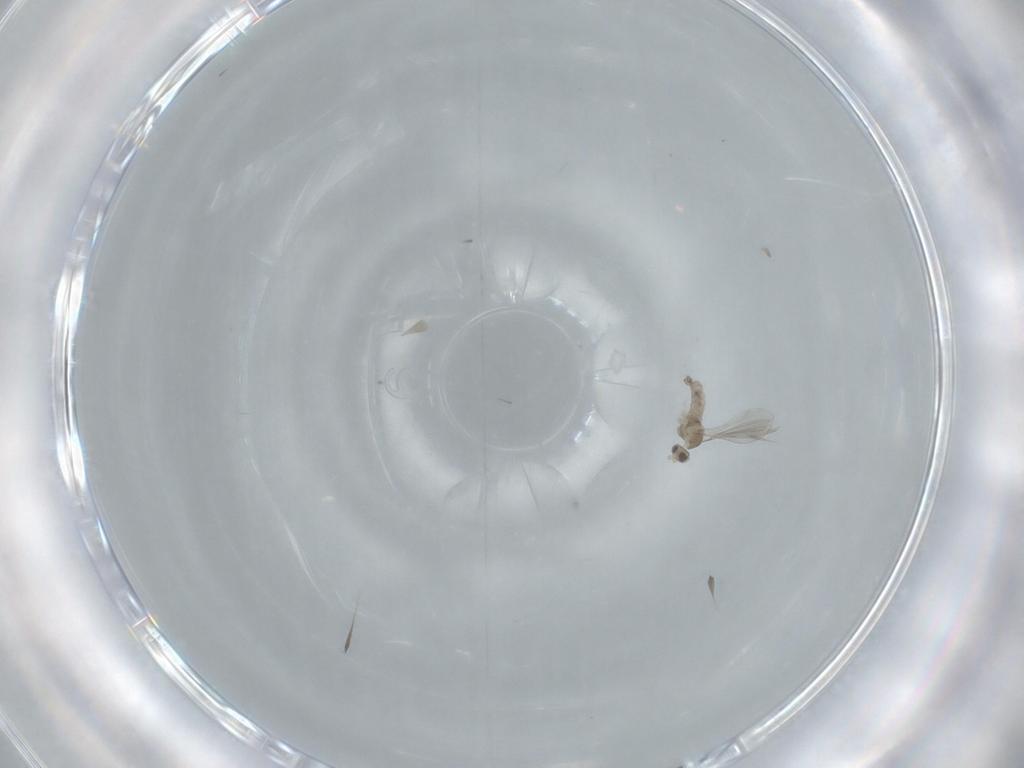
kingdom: Animalia
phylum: Arthropoda
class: Insecta
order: Diptera
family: Cecidomyiidae
